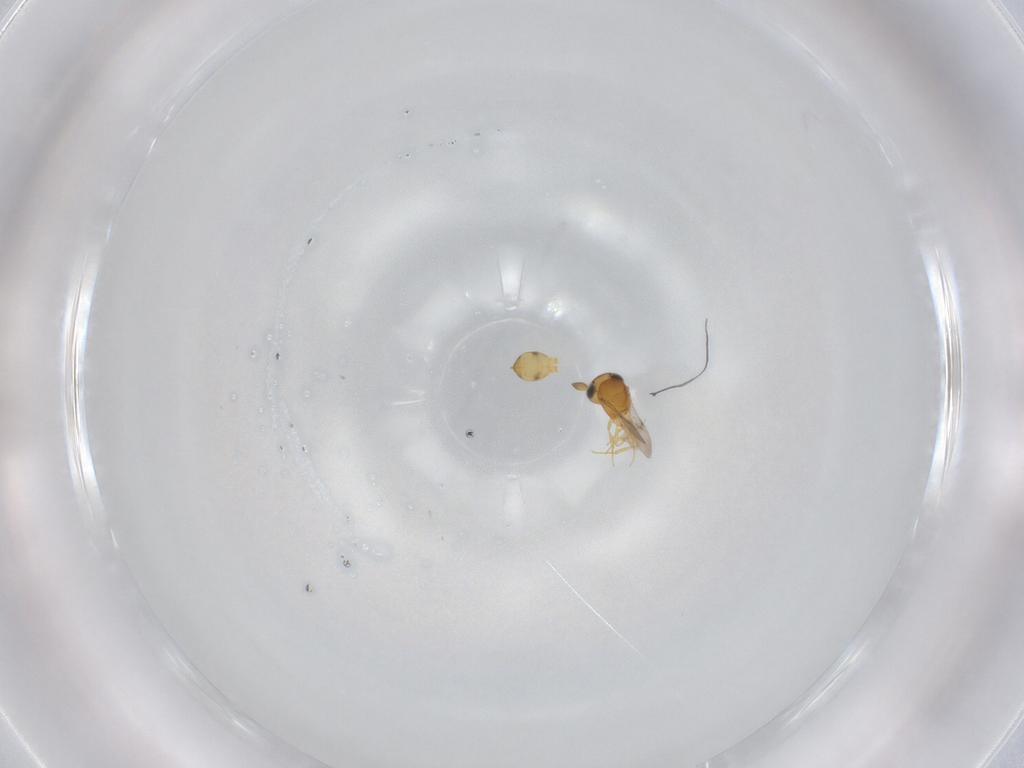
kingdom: Animalia
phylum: Arthropoda
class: Insecta
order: Hymenoptera
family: Scelionidae
